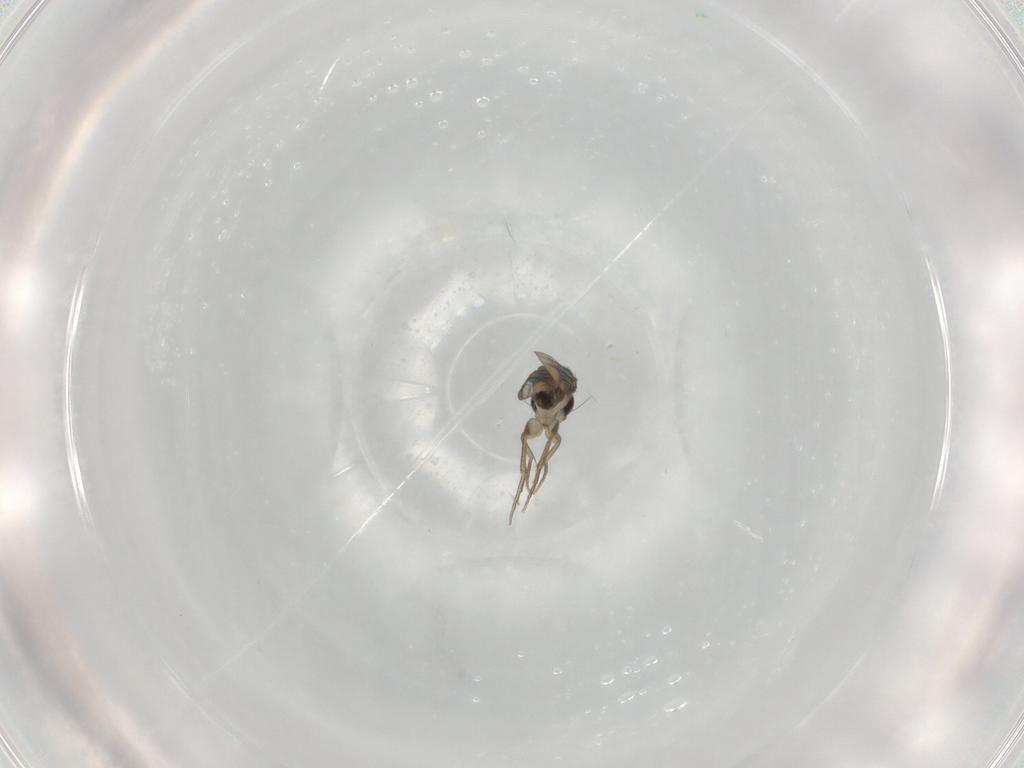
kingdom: Animalia
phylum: Arthropoda
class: Insecta
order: Diptera
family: Phoridae
